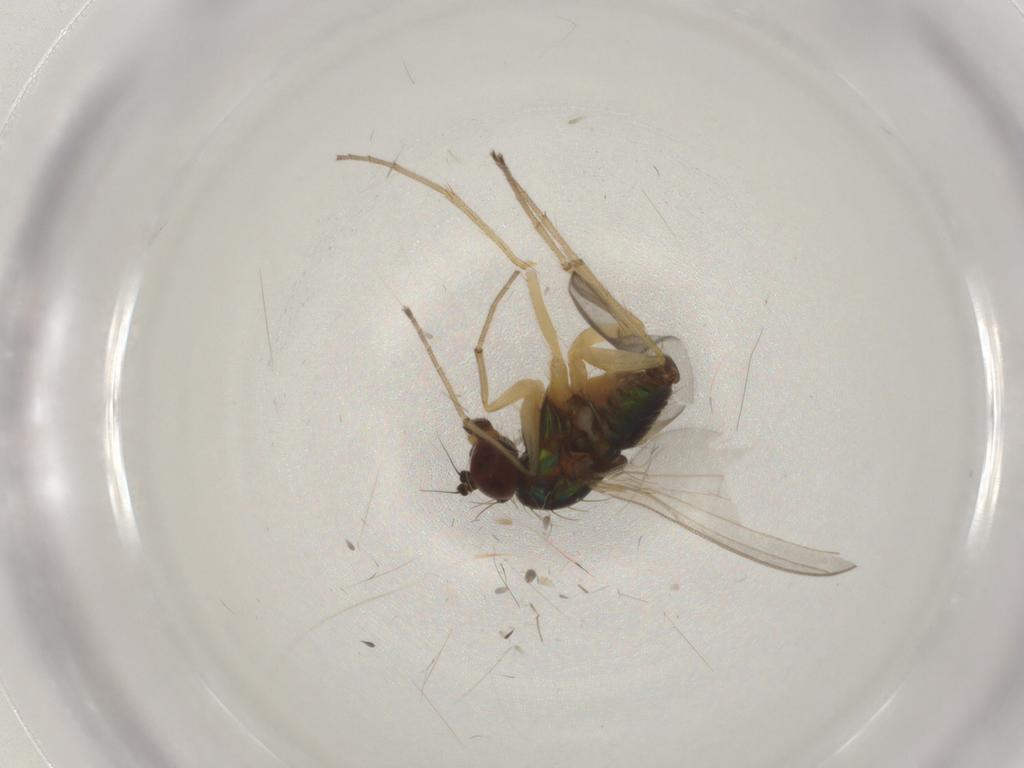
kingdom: Animalia
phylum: Arthropoda
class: Insecta
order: Diptera
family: Dolichopodidae
